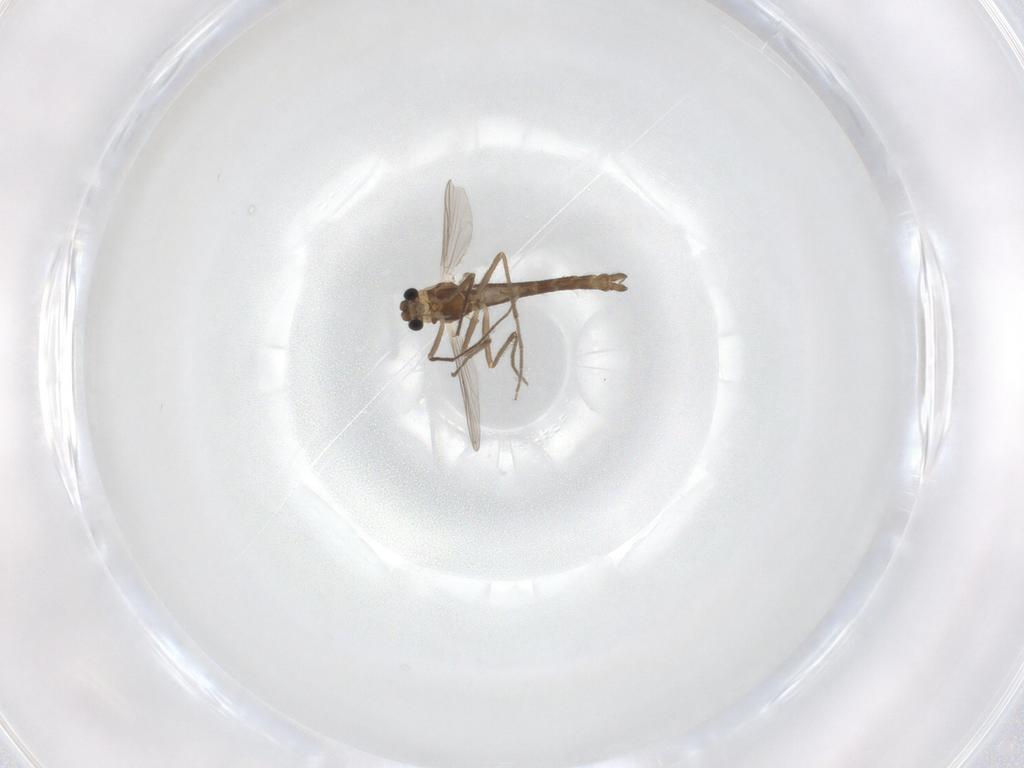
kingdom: Animalia
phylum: Arthropoda
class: Insecta
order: Diptera
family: Chironomidae
